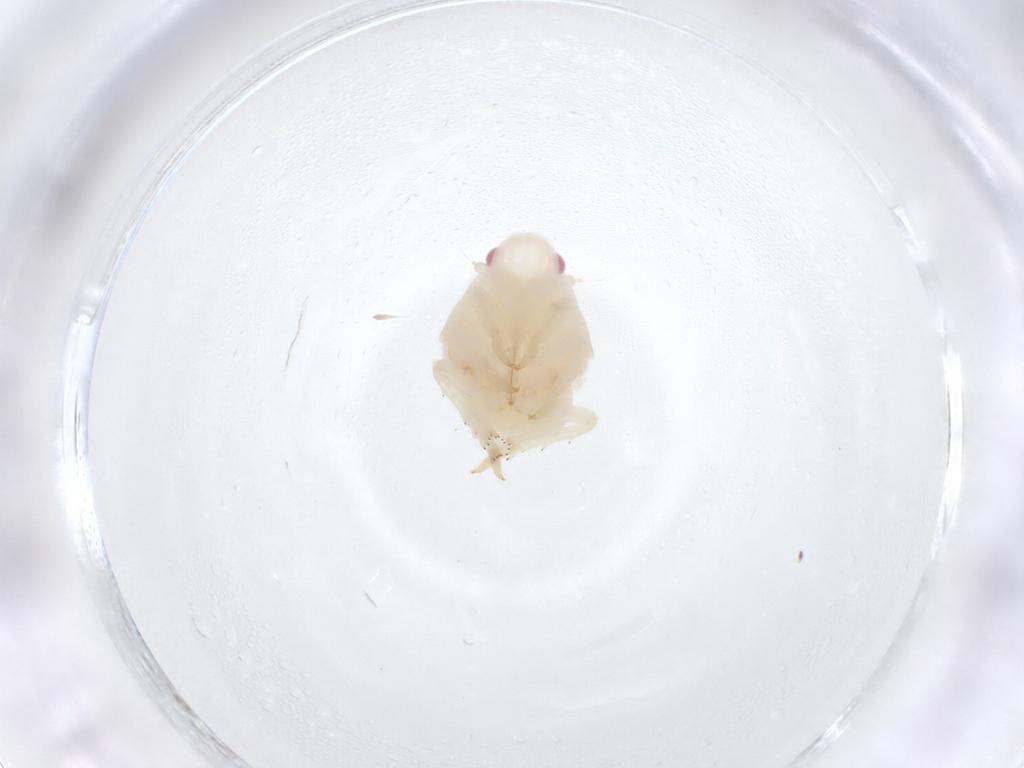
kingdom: Animalia
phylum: Arthropoda
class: Insecta
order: Hemiptera
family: Flatidae
